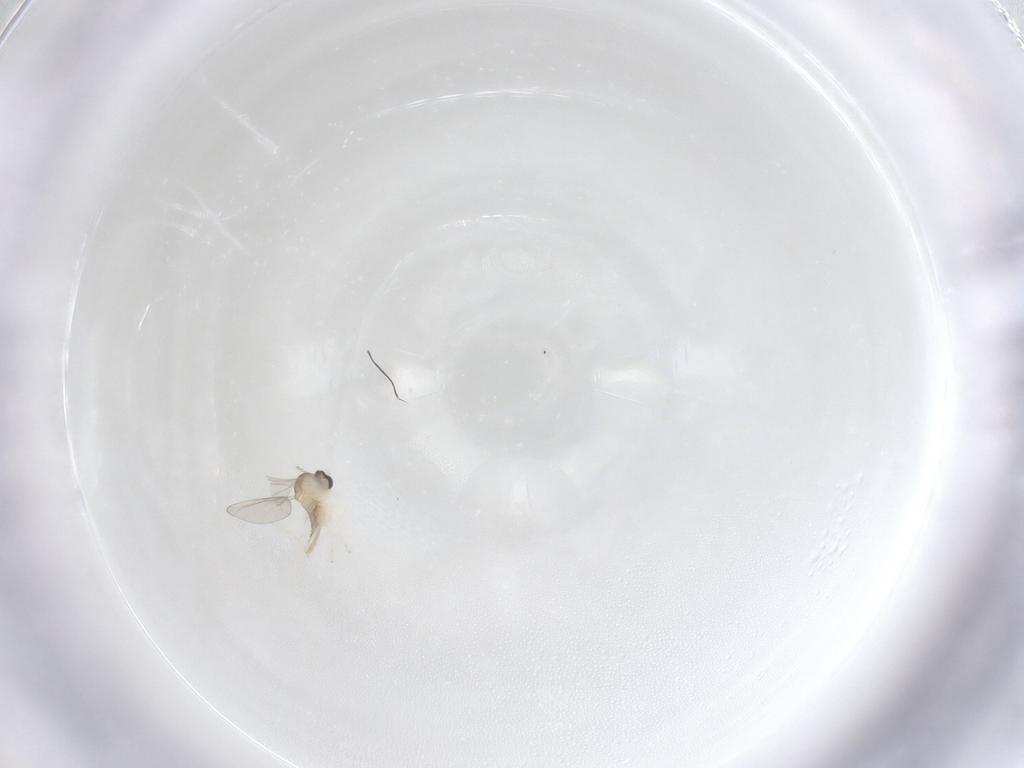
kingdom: Animalia
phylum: Arthropoda
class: Insecta
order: Diptera
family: Cecidomyiidae
